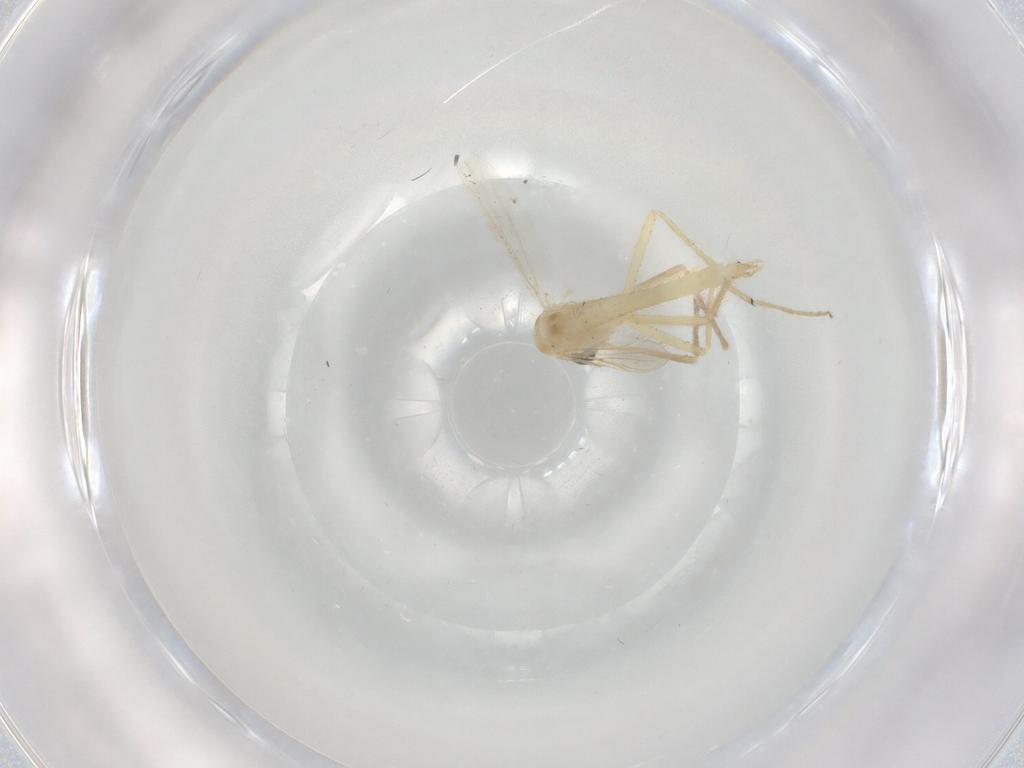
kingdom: Animalia
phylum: Arthropoda
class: Insecta
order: Diptera
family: Chironomidae
